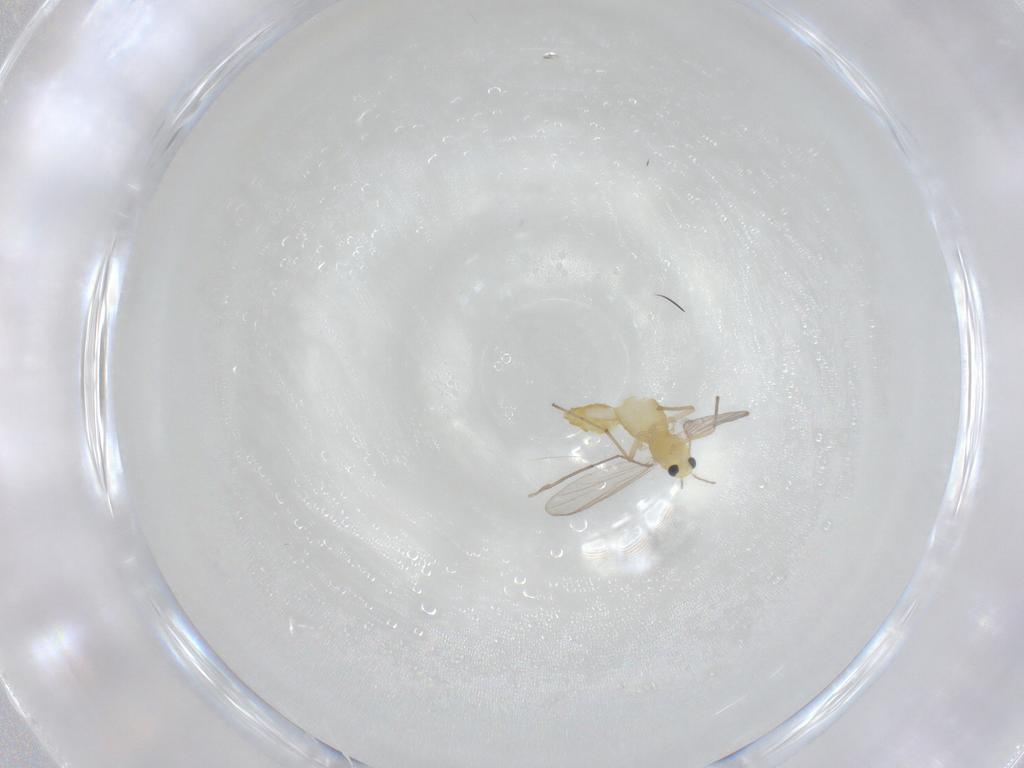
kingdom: Animalia
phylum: Arthropoda
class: Insecta
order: Diptera
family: Chironomidae
